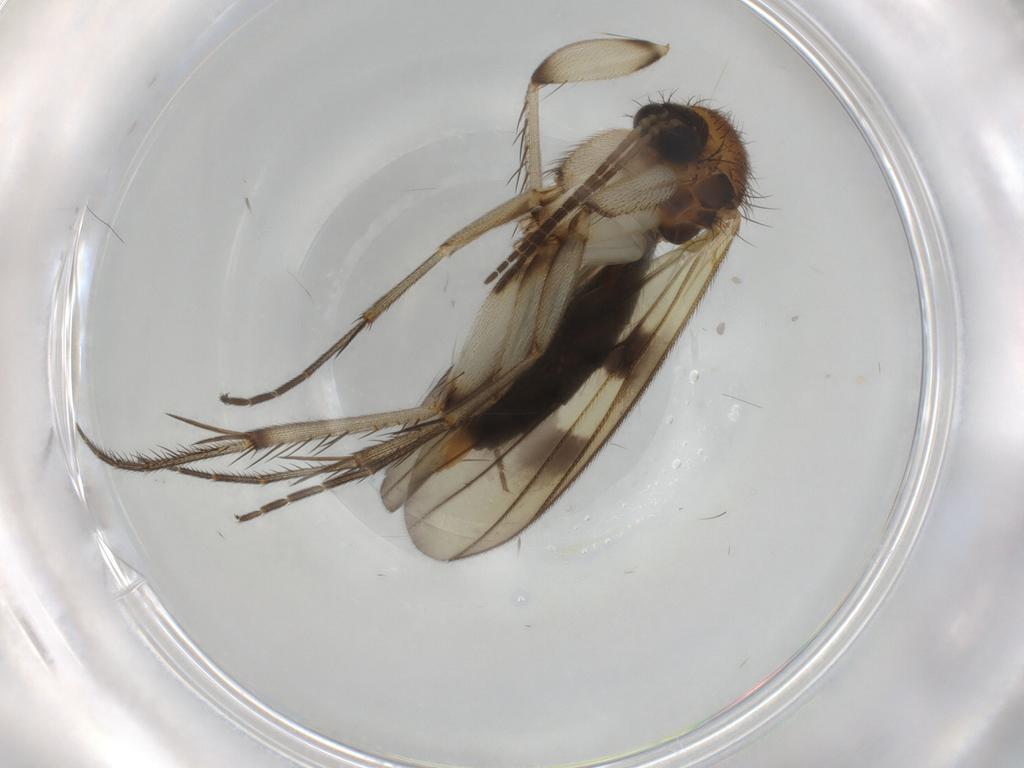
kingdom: Animalia
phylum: Arthropoda
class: Insecta
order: Diptera
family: Mycetophilidae
